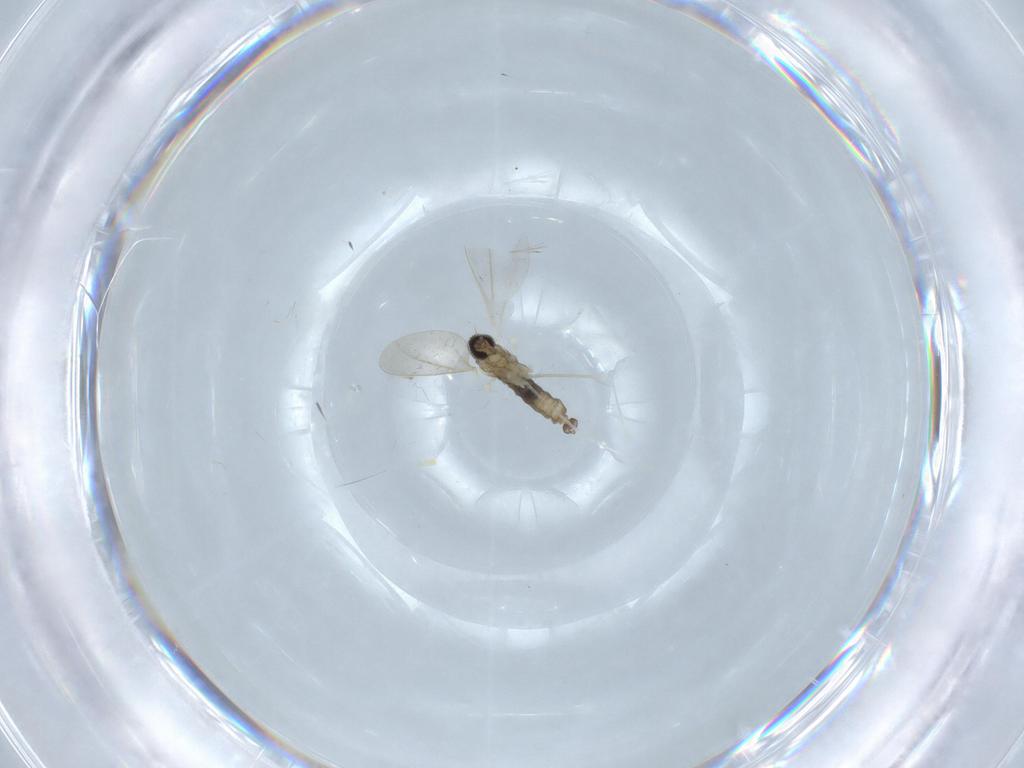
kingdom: Animalia
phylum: Arthropoda
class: Insecta
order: Diptera
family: Cecidomyiidae
